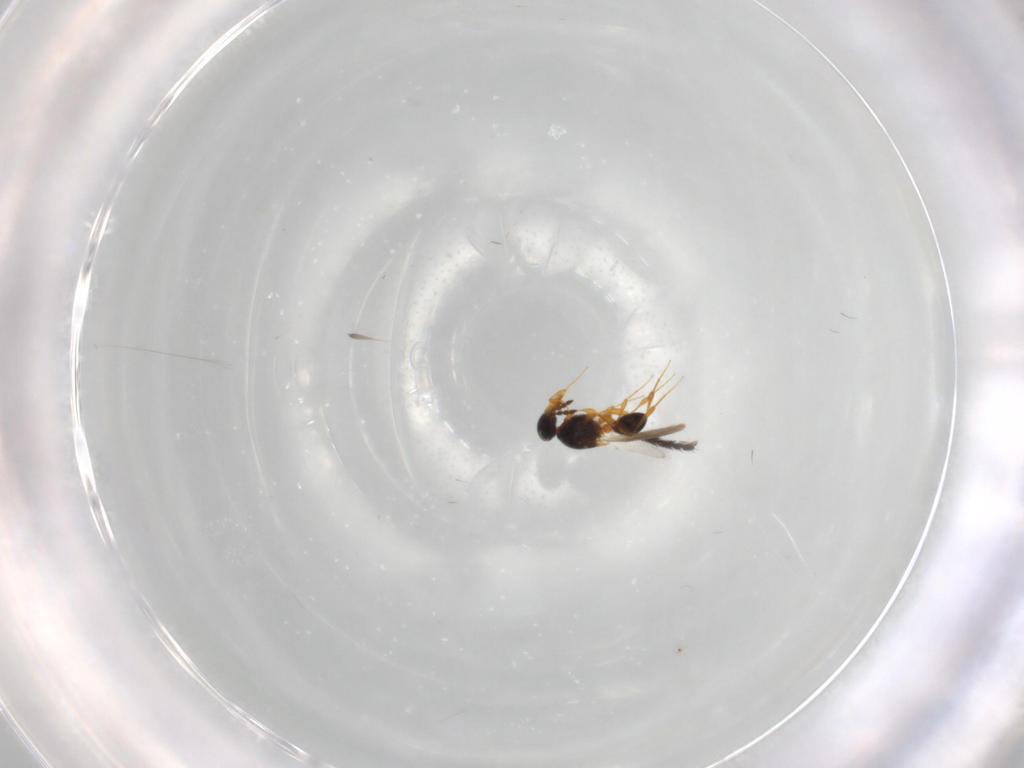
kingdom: Animalia
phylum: Arthropoda
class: Insecta
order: Hymenoptera
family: Platygastridae
